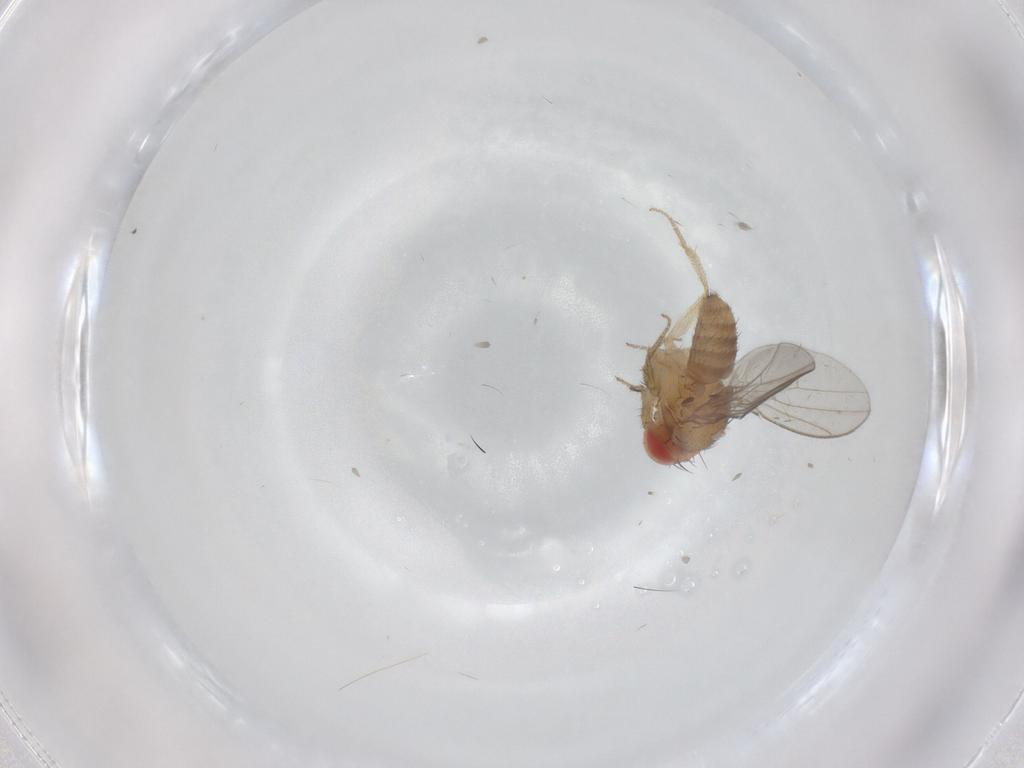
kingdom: Animalia
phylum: Arthropoda
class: Insecta
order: Diptera
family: Drosophilidae
